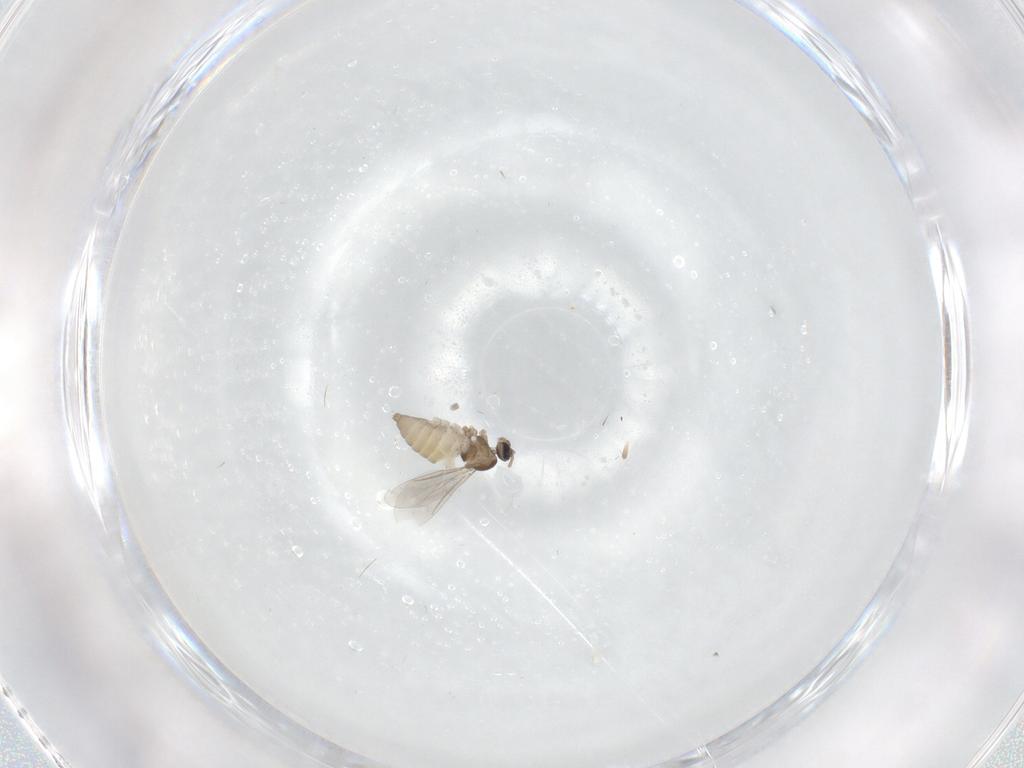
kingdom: Animalia
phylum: Arthropoda
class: Insecta
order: Diptera
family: Cecidomyiidae
